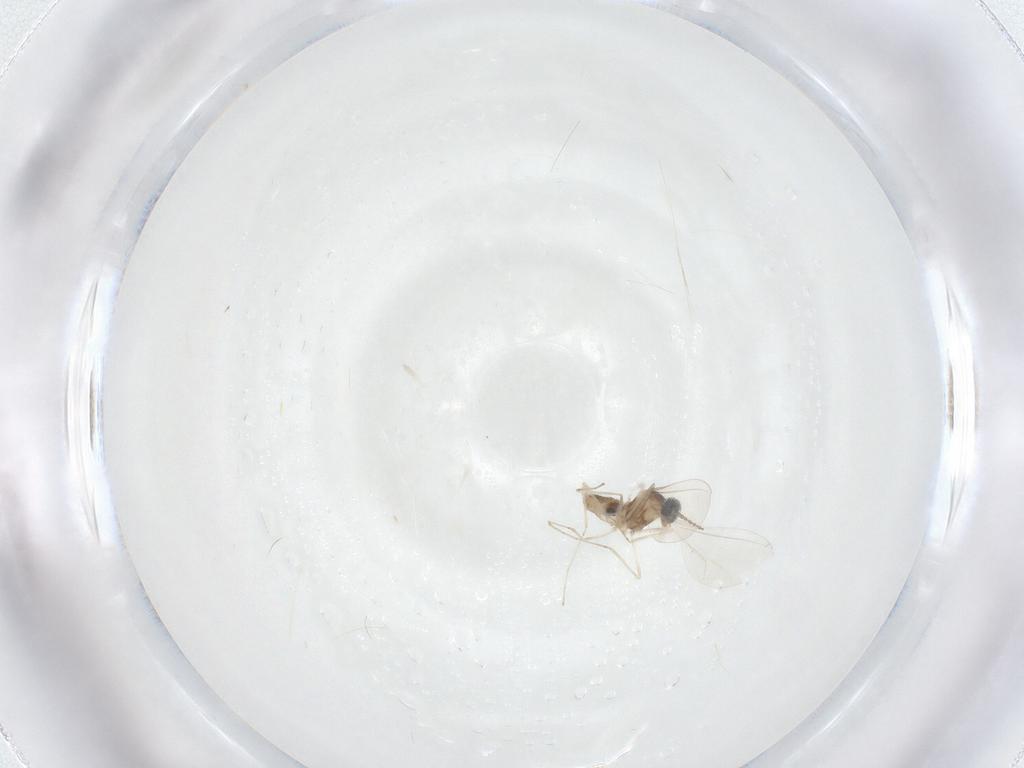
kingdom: Animalia
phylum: Arthropoda
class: Insecta
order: Diptera
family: Cecidomyiidae
